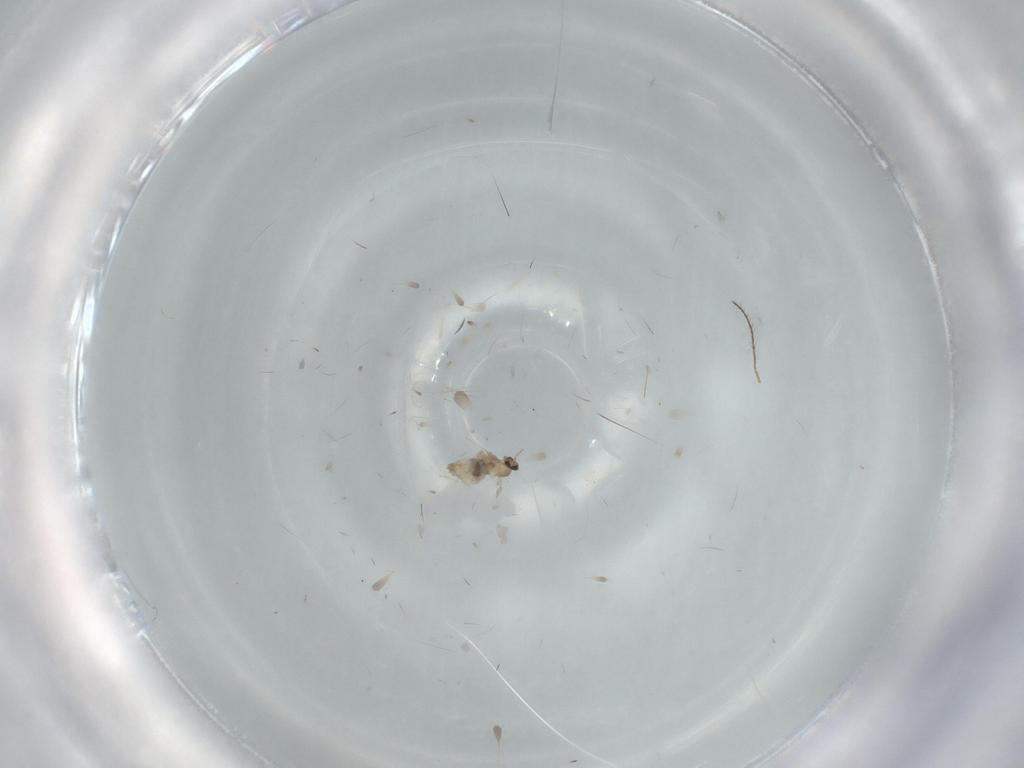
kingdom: Animalia
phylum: Arthropoda
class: Insecta
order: Diptera
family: Cecidomyiidae
